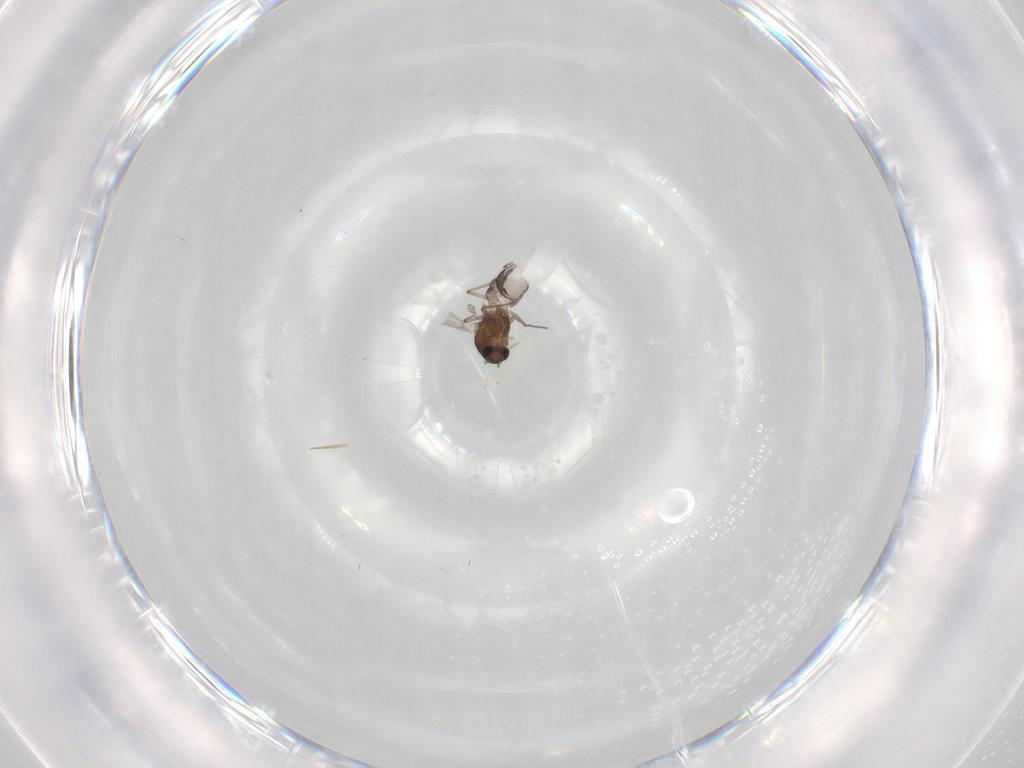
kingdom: Animalia
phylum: Arthropoda
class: Insecta
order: Diptera
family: Chironomidae
